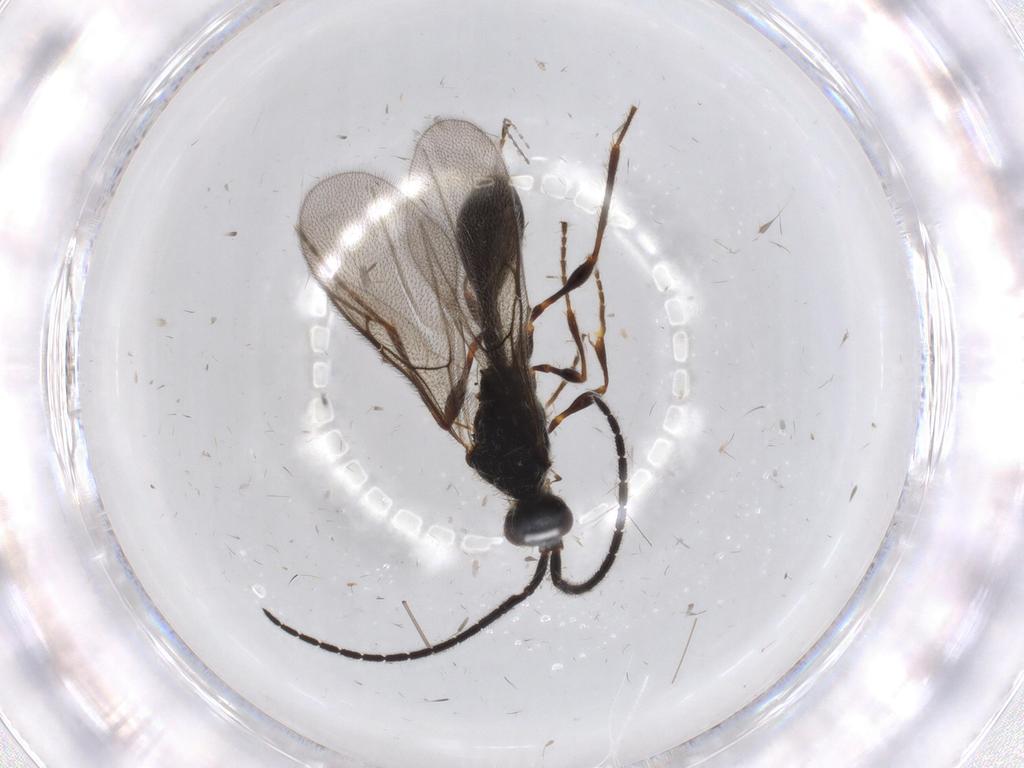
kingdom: Animalia
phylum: Arthropoda
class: Insecta
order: Hymenoptera
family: Diapriidae
